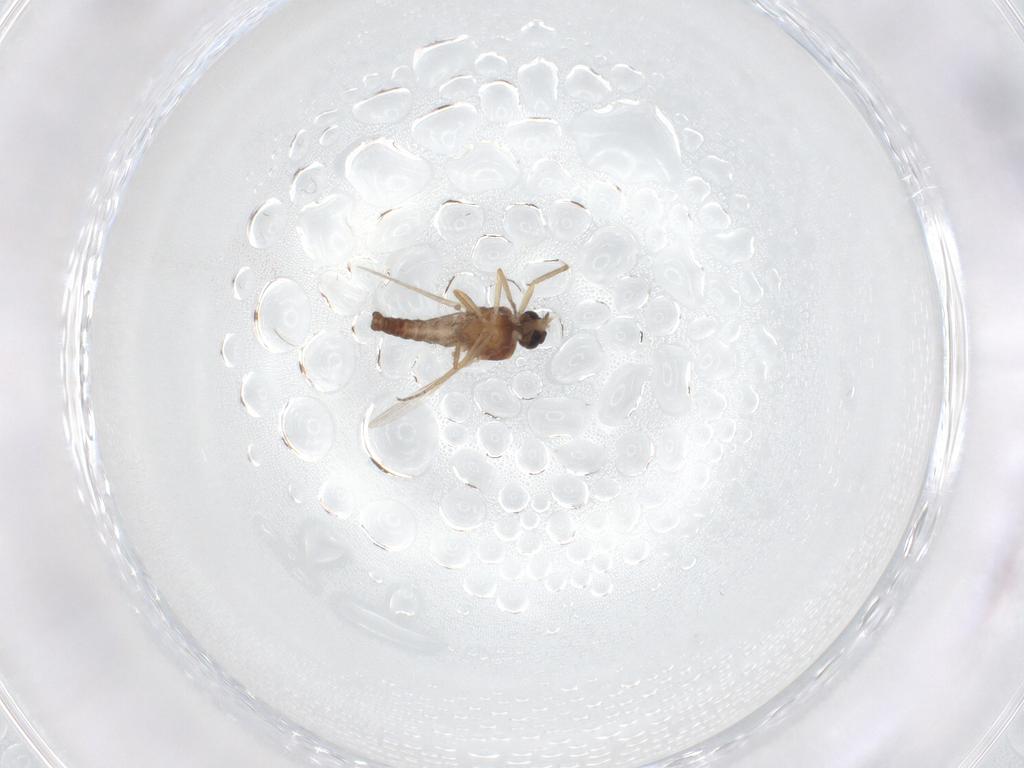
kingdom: Animalia
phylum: Arthropoda
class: Insecta
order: Diptera
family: Ceratopogonidae
